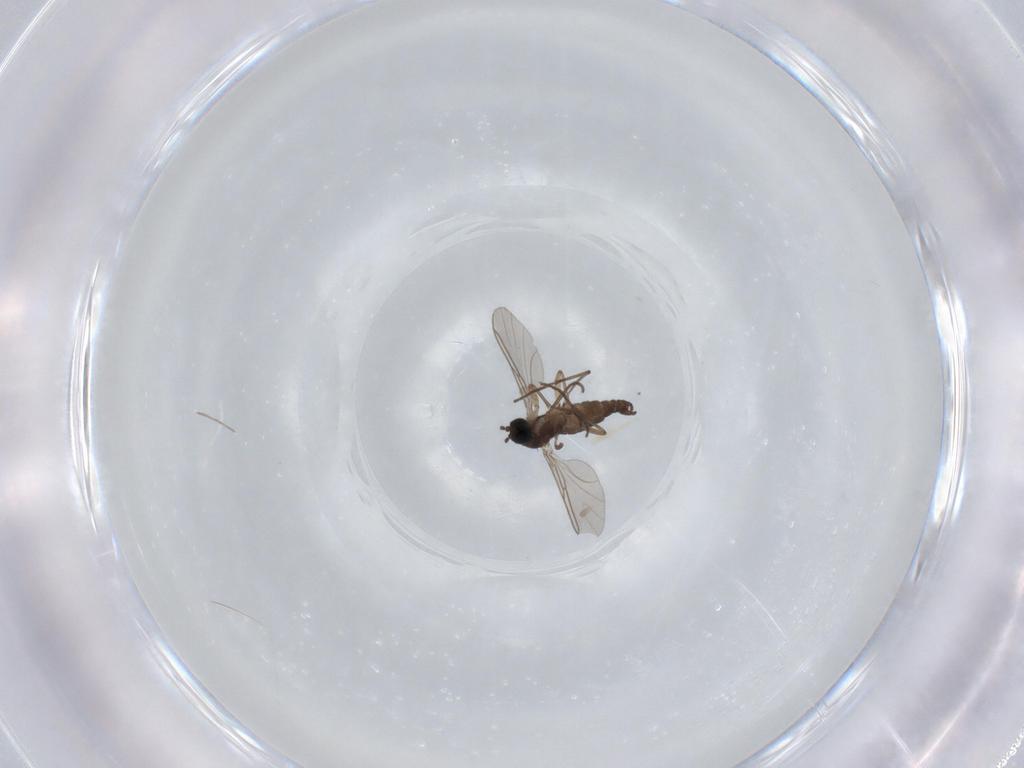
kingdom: Animalia
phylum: Arthropoda
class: Insecta
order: Diptera
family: Sciaridae
